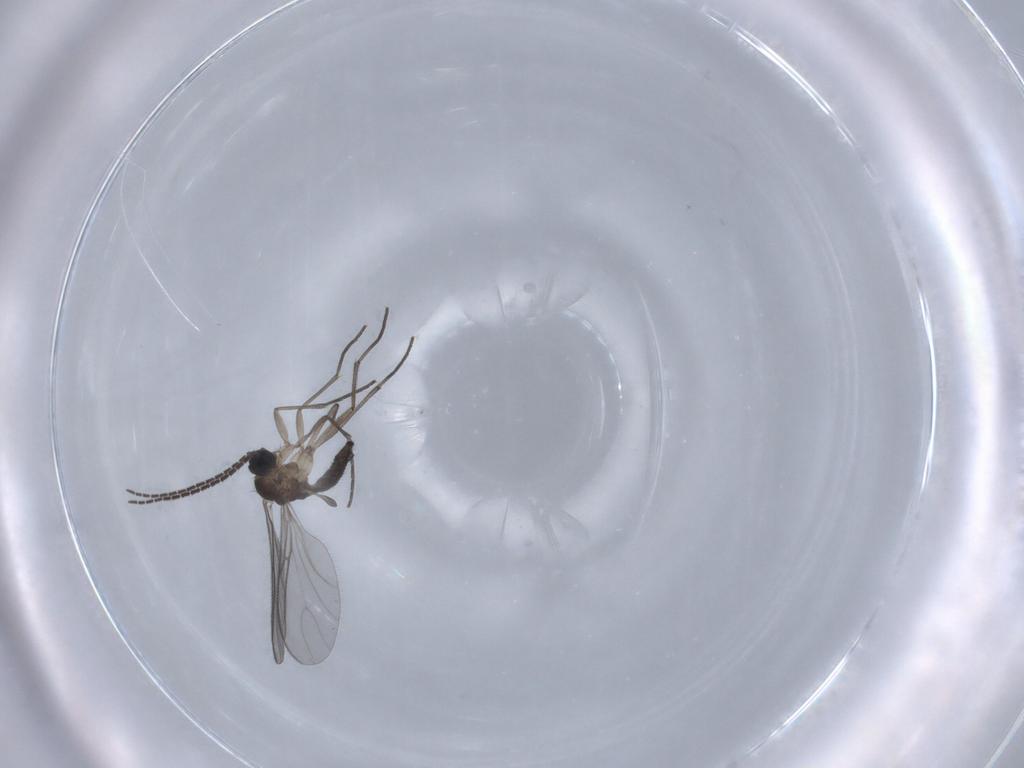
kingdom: Animalia
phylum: Arthropoda
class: Insecta
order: Diptera
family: Sciaridae
